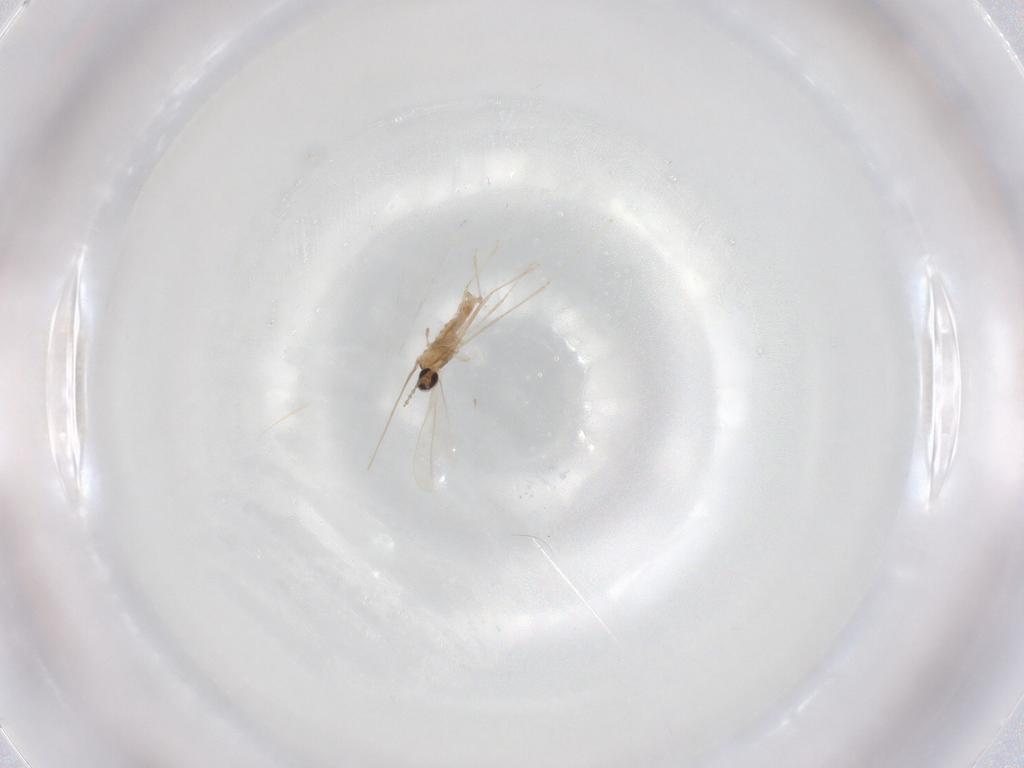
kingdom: Animalia
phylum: Arthropoda
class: Insecta
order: Diptera
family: Cecidomyiidae
